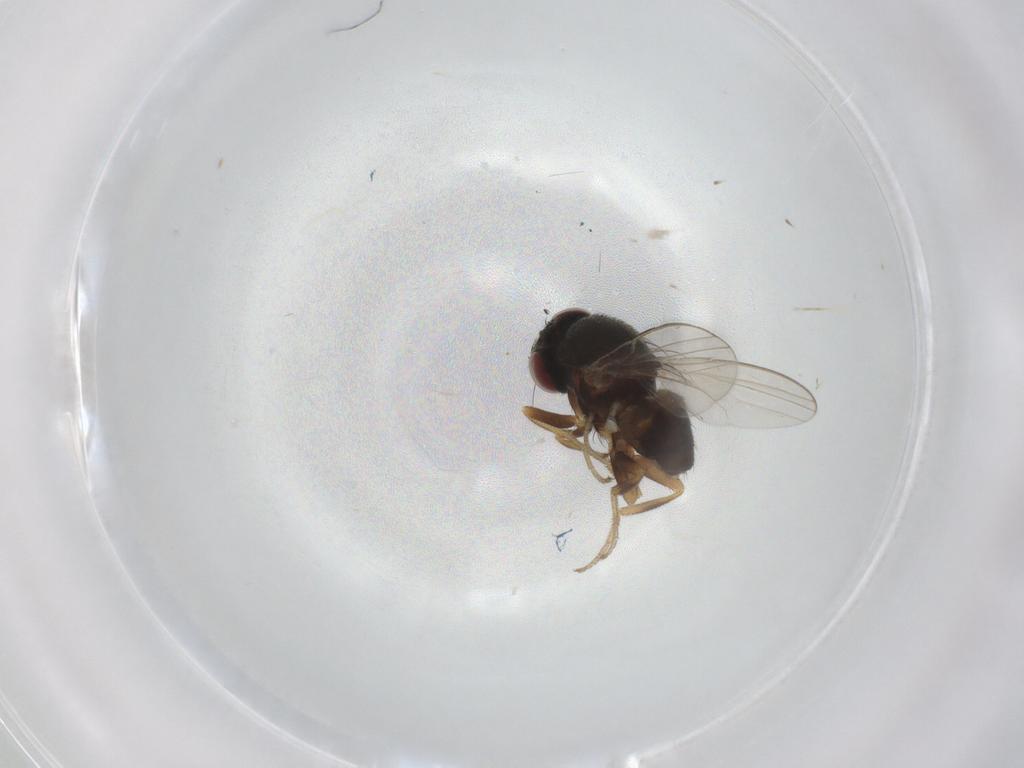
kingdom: Animalia
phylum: Arthropoda
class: Insecta
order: Diptera
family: Milichiidae
